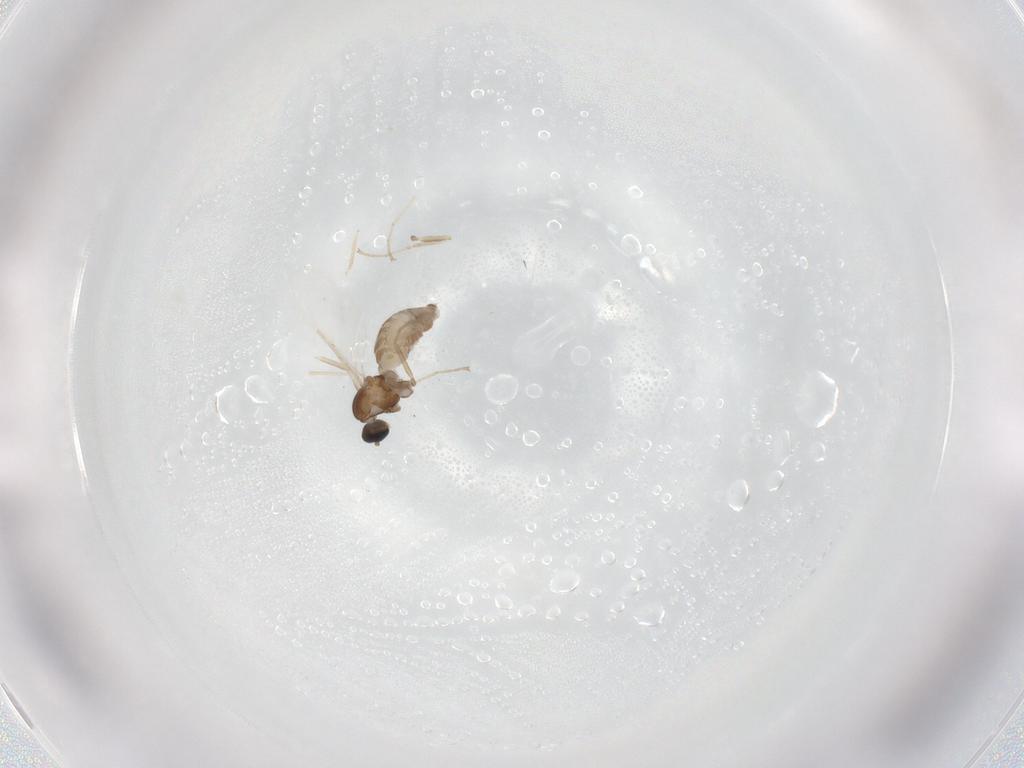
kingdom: Animalia
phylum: Arthropoda
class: Insecta
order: Diptera
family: Cecidomyiidae
